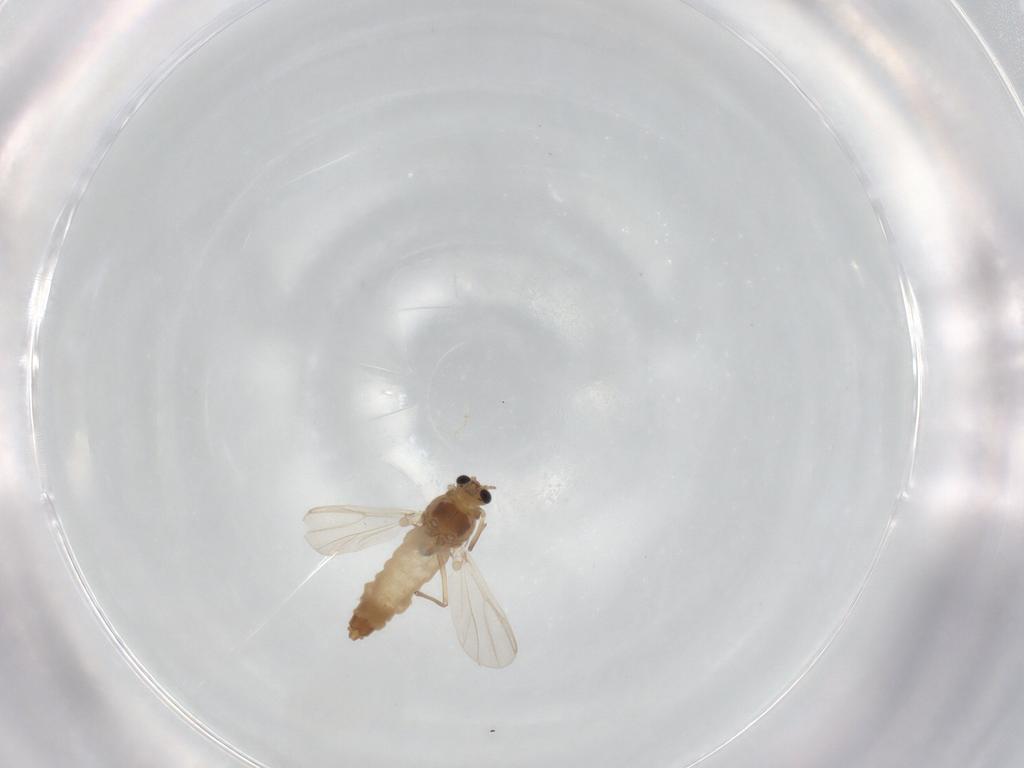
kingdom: Animalia
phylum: Arthropoda
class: Insecta
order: Diptera
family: Chironomidae
